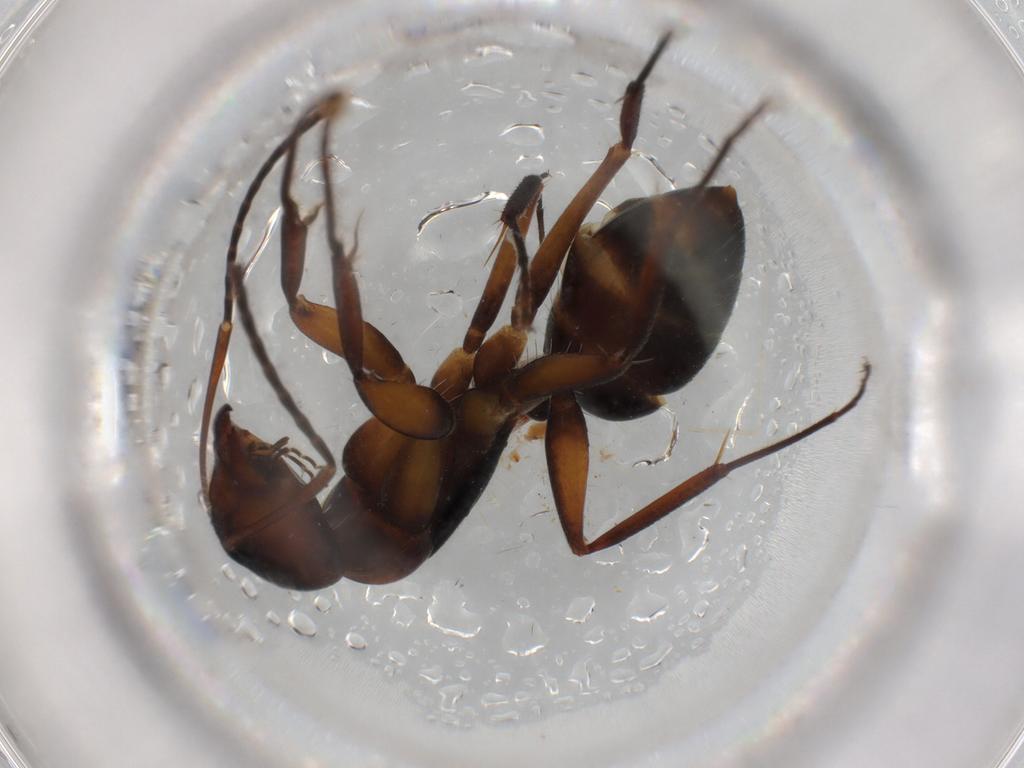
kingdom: Animalia
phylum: Arthropoda
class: Insecta
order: Hymenoptera
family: Formicidae
